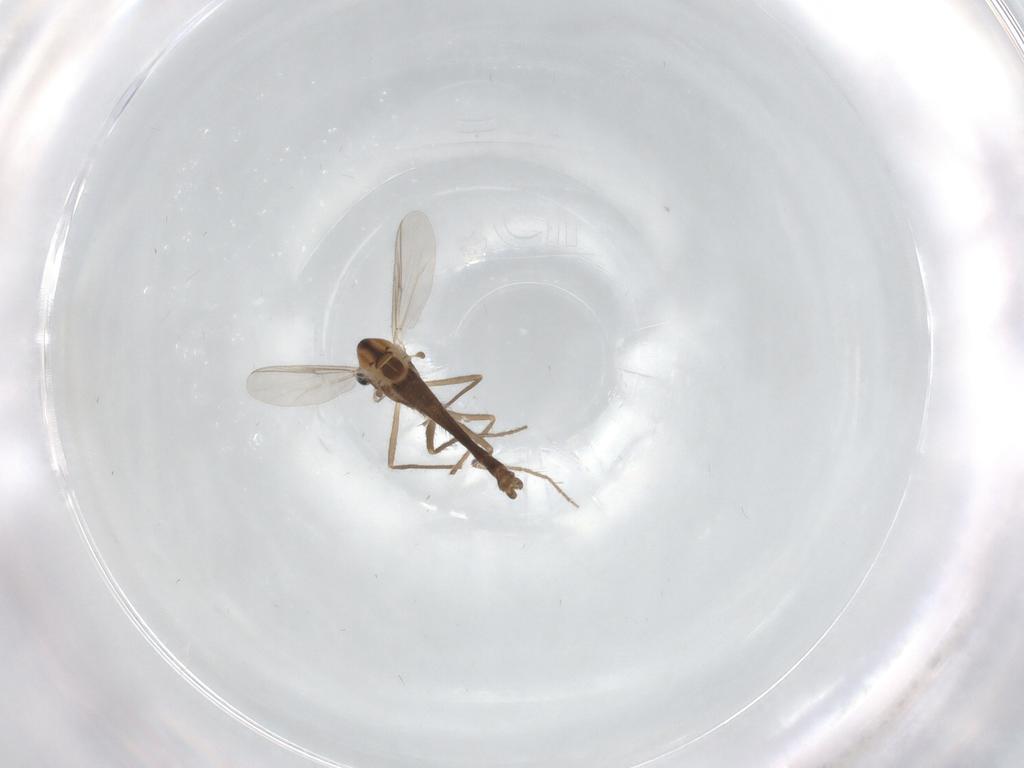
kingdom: Animalia
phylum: Arthropoda
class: Insecta
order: Diptera
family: Chironomidae
